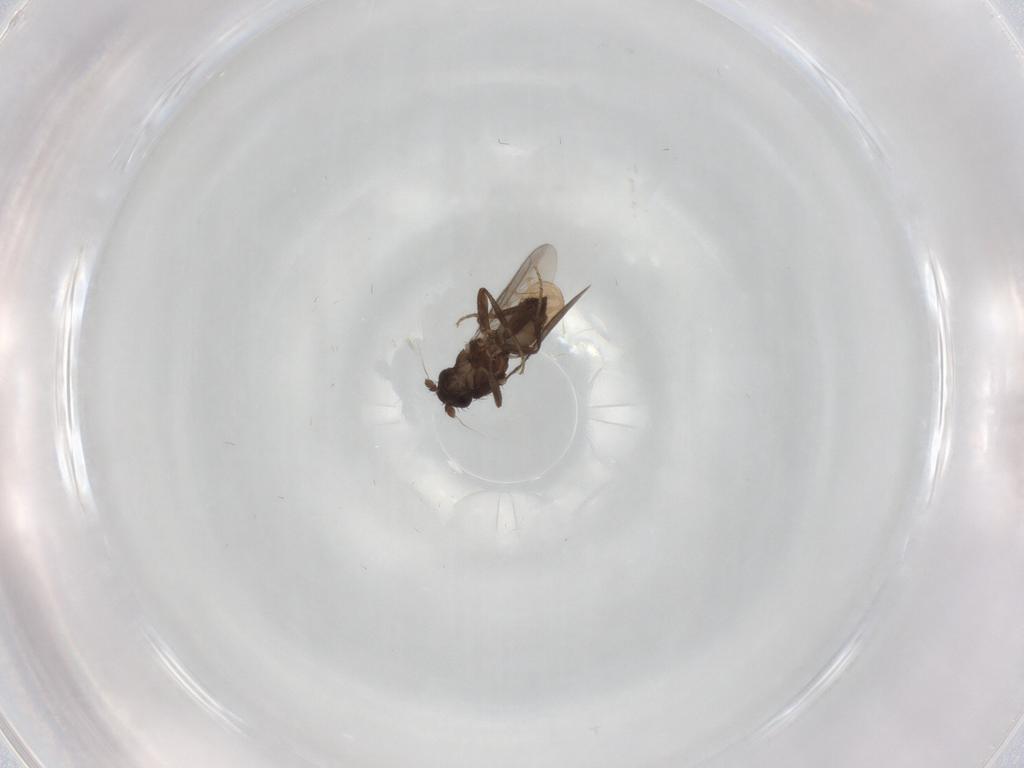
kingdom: Animalia
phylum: Arthropoda
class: Insecta
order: Diptera
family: Sphaeroceridae
